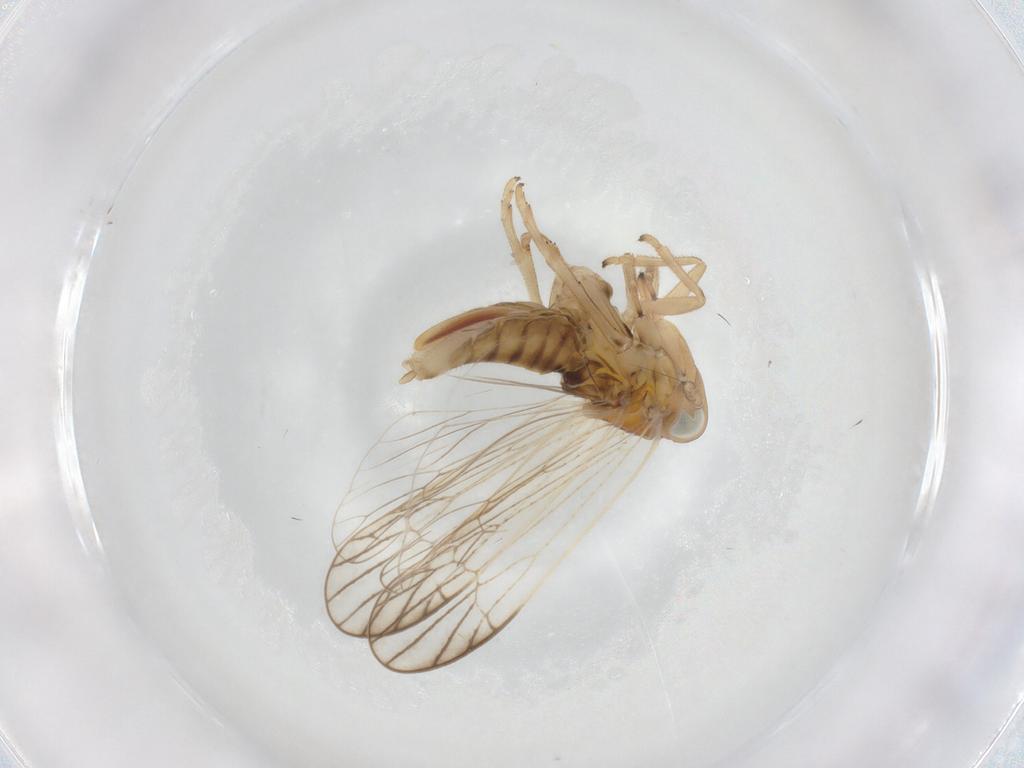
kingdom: Animalia
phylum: Arthropoda
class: Insecta
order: Hemiptera
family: Delphacidae
